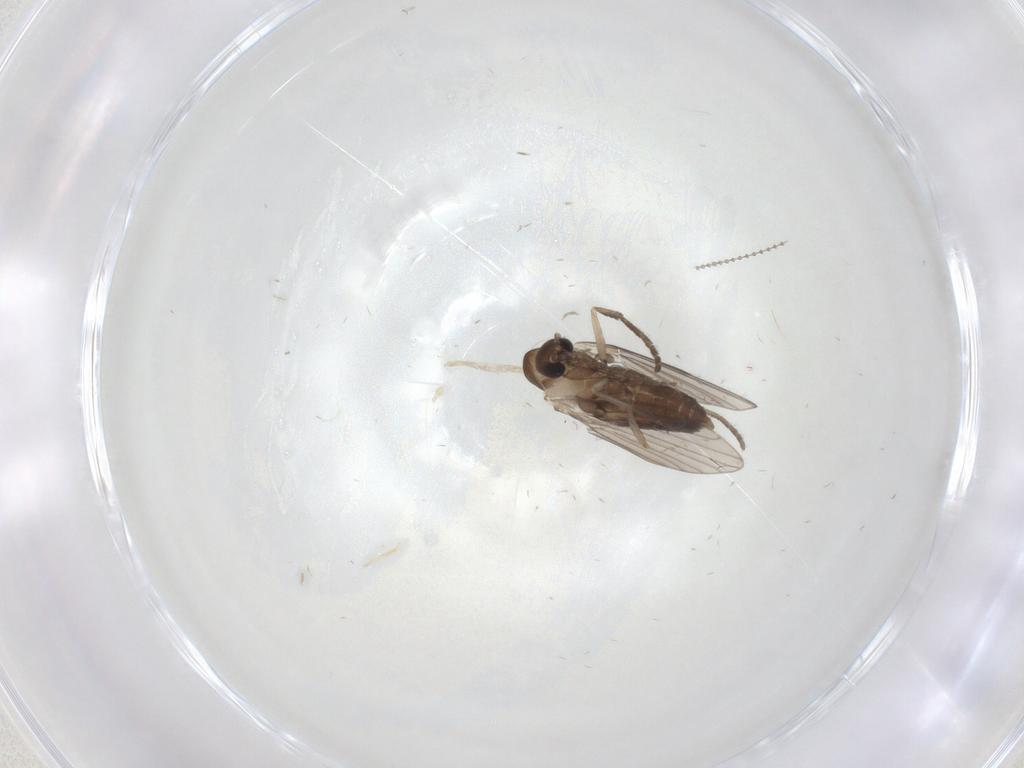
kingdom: Animalia
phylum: Arthropoda
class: Insecta
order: Diptera
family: Psychodidae
